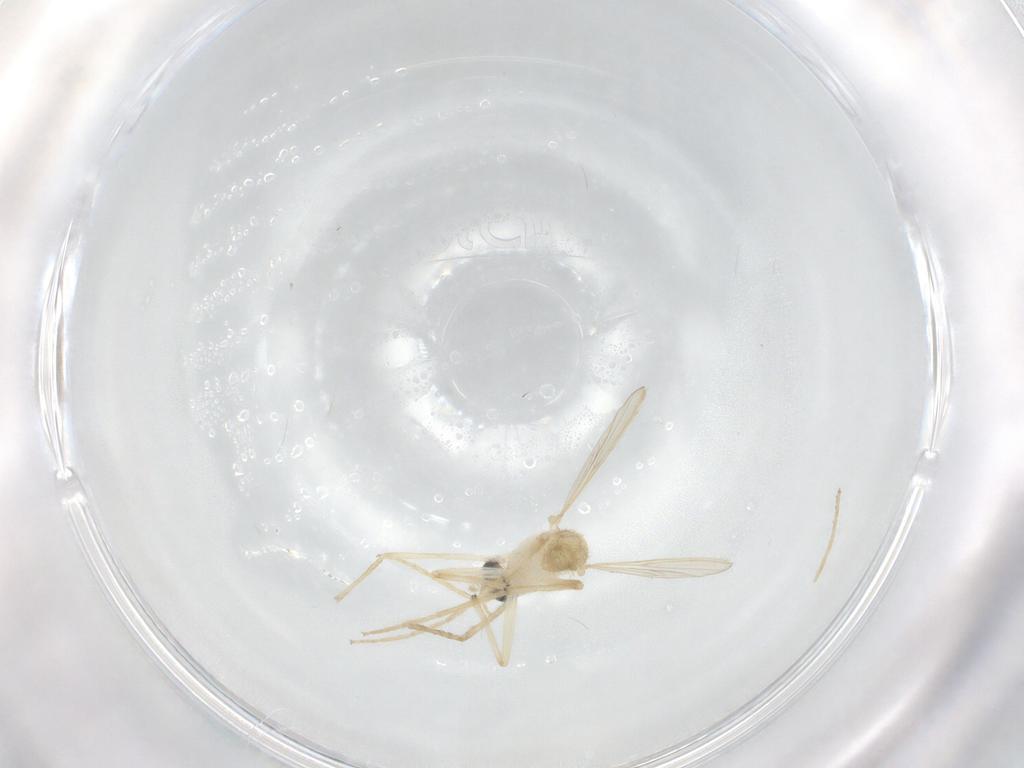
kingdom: Animalia
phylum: Arthropoda
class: Insecta
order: Diptera
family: Chironomidae
